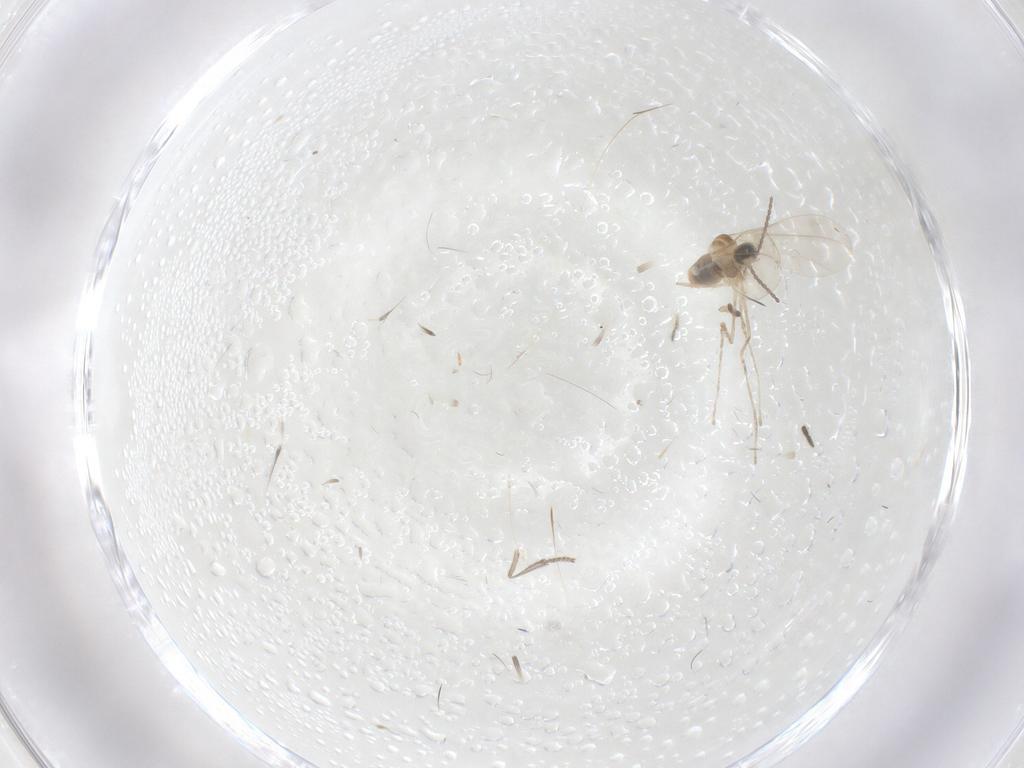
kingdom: Animalia
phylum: Arthropoda
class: Insecta
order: Diptera
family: Sciaridae
